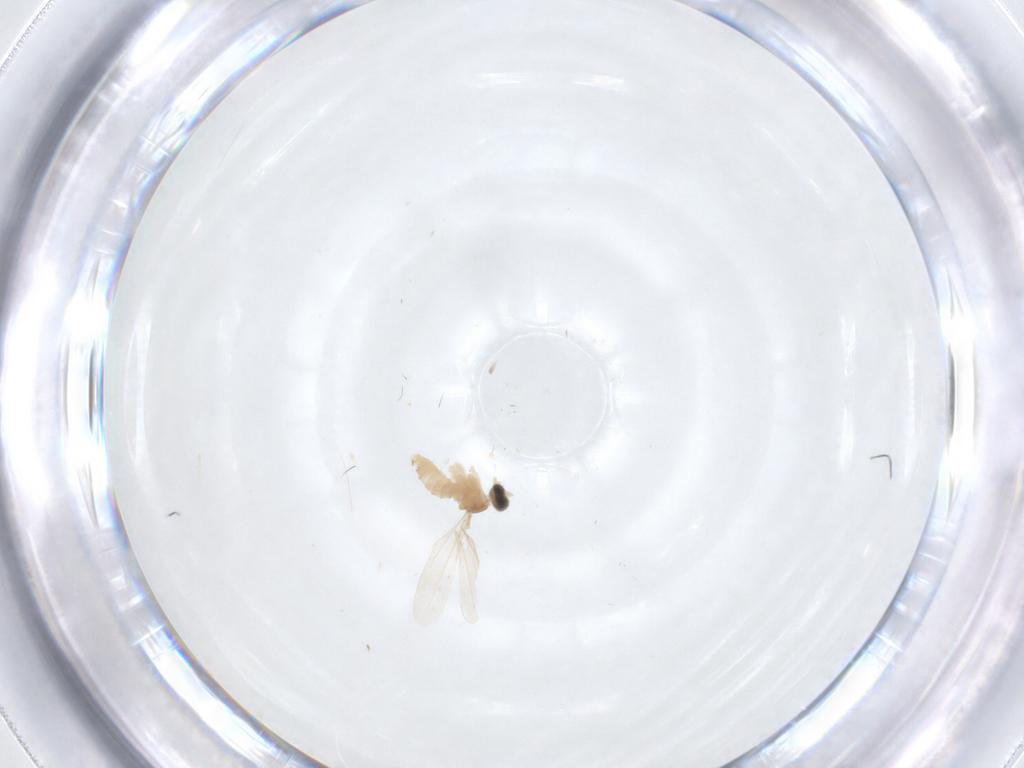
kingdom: Animalia
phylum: Arthropoda
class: Insecta
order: Diptera
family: Cecidomyiidae
